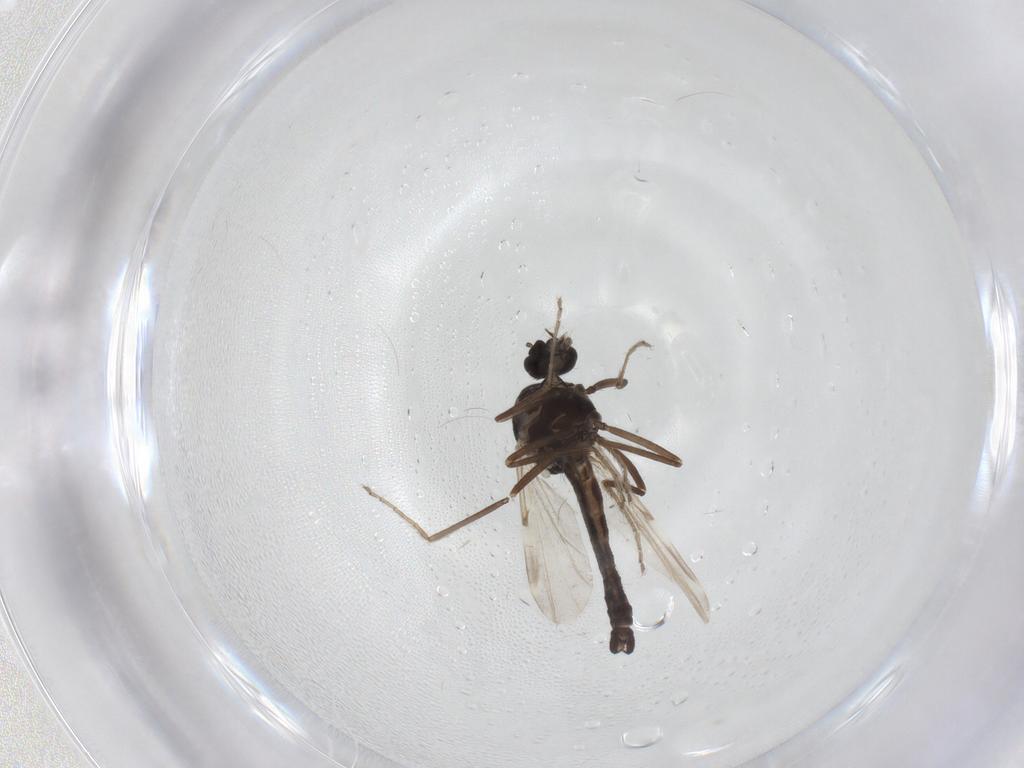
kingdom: Animalia
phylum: Arthropoda
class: Insecta
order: Diptera
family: Ceratopogonidae
